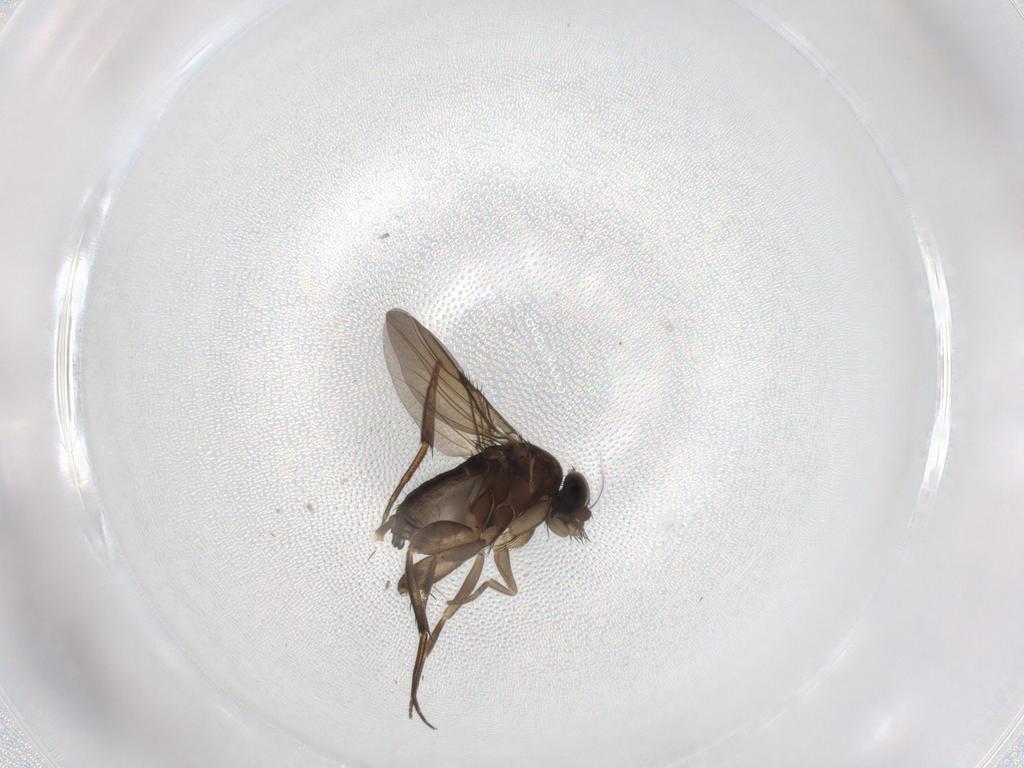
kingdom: Animalia
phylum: Arthropoda
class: Insecta
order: Diptera
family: Phoridae
